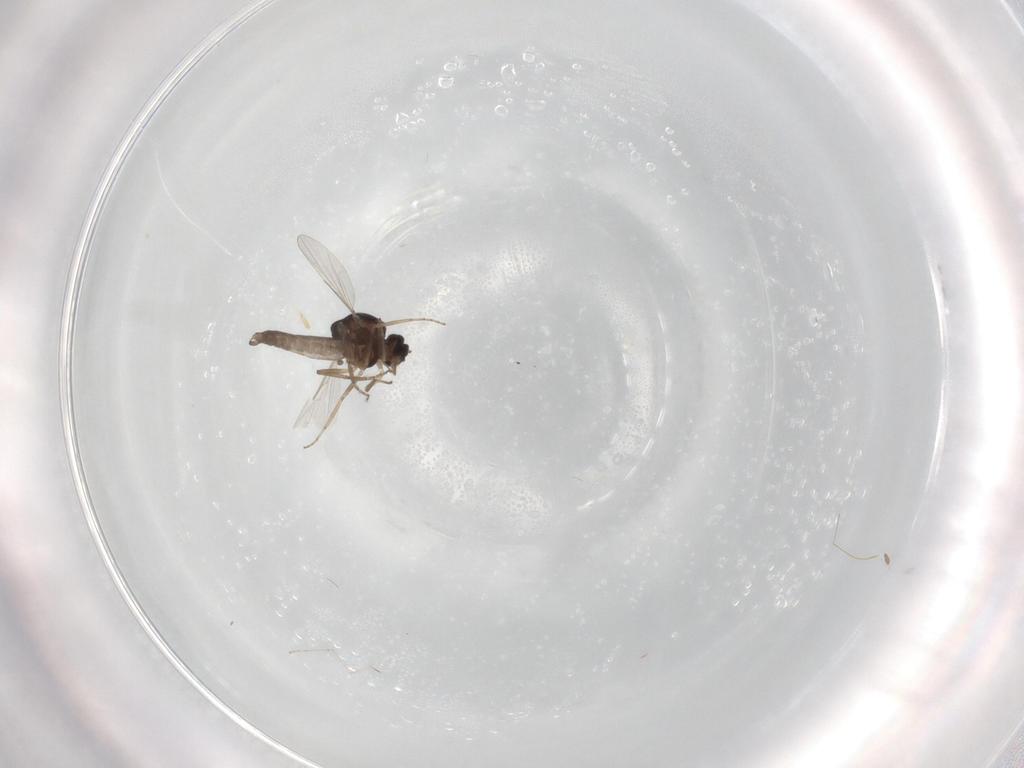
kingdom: Animalia
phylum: Arthropoda
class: Insecta
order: Diptera
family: Ceratopogonidae
